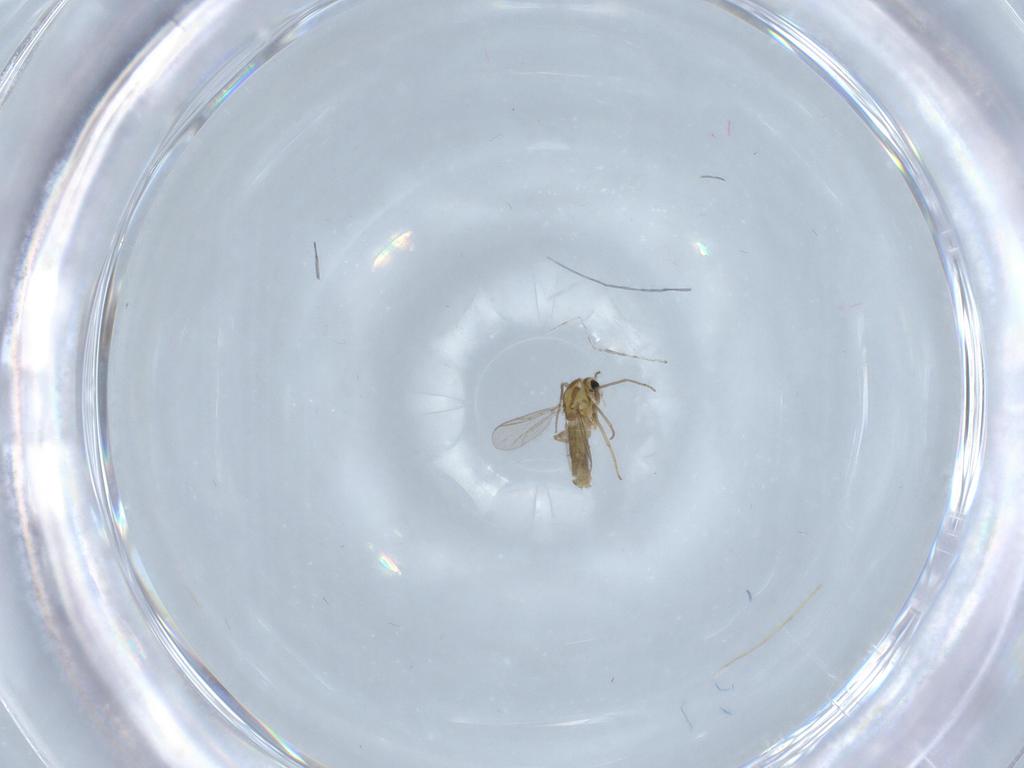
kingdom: Animalia
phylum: Arthropoda
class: Insecta
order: Diptera
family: Chironomidae
